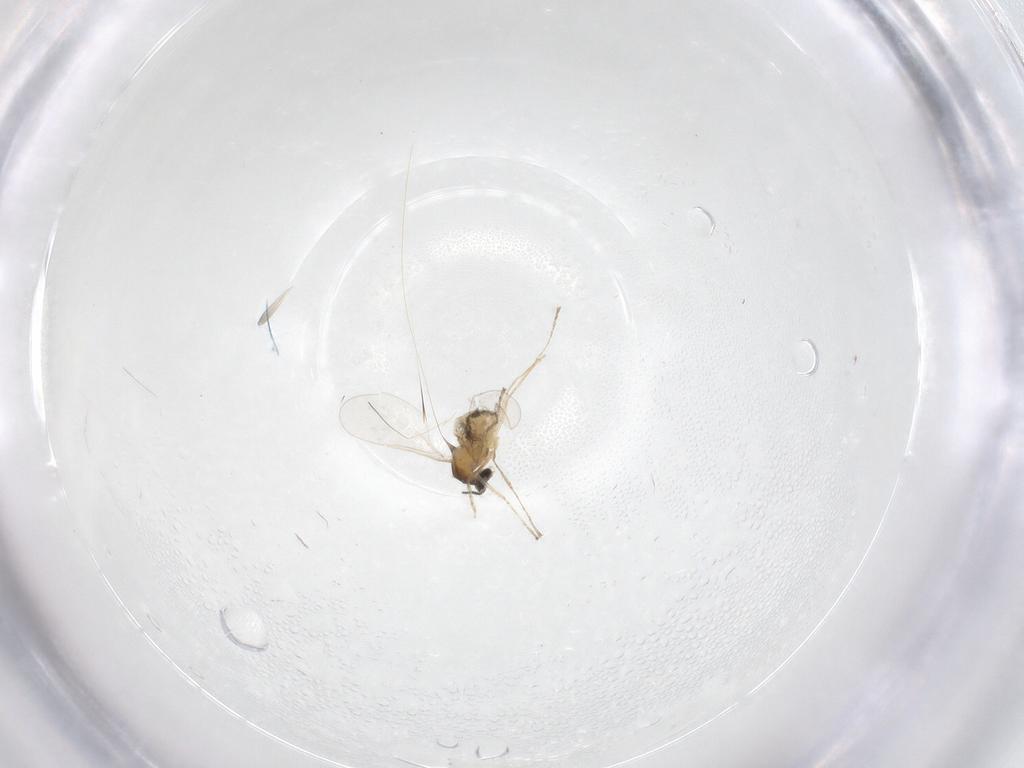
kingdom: Animalia
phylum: Arthropoda
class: Insecta
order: Diptera
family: Cecidomyiidae
